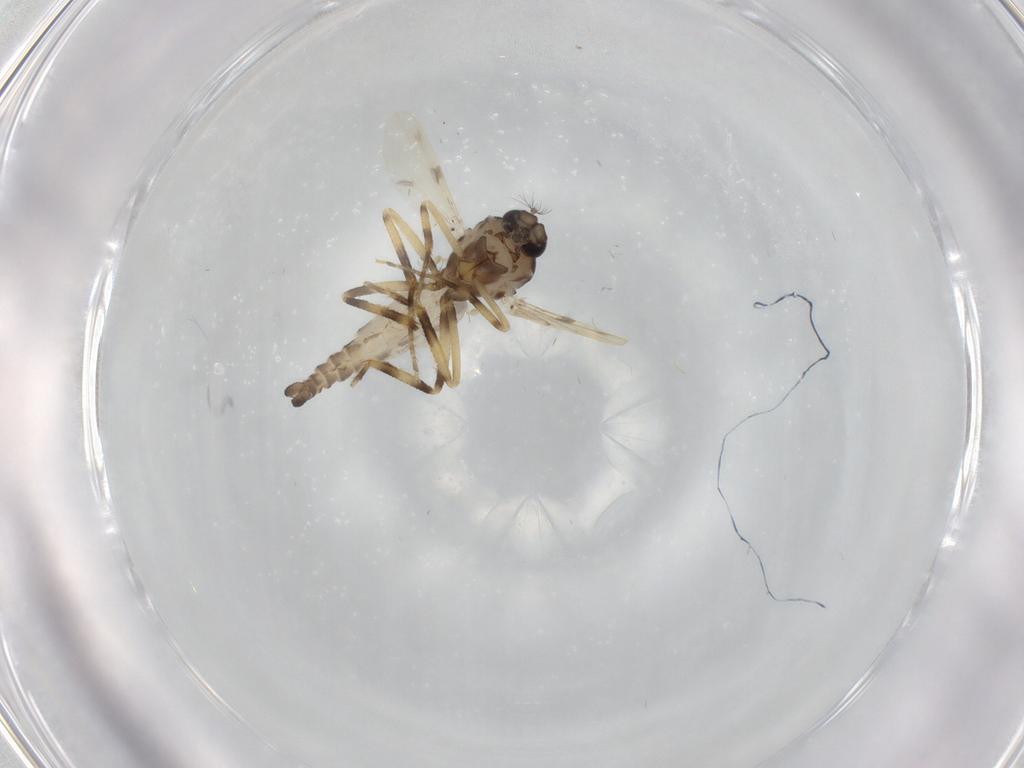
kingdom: Animalia
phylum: Arthropoda
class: Insecta
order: Diptera
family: Ceratopogonidae
